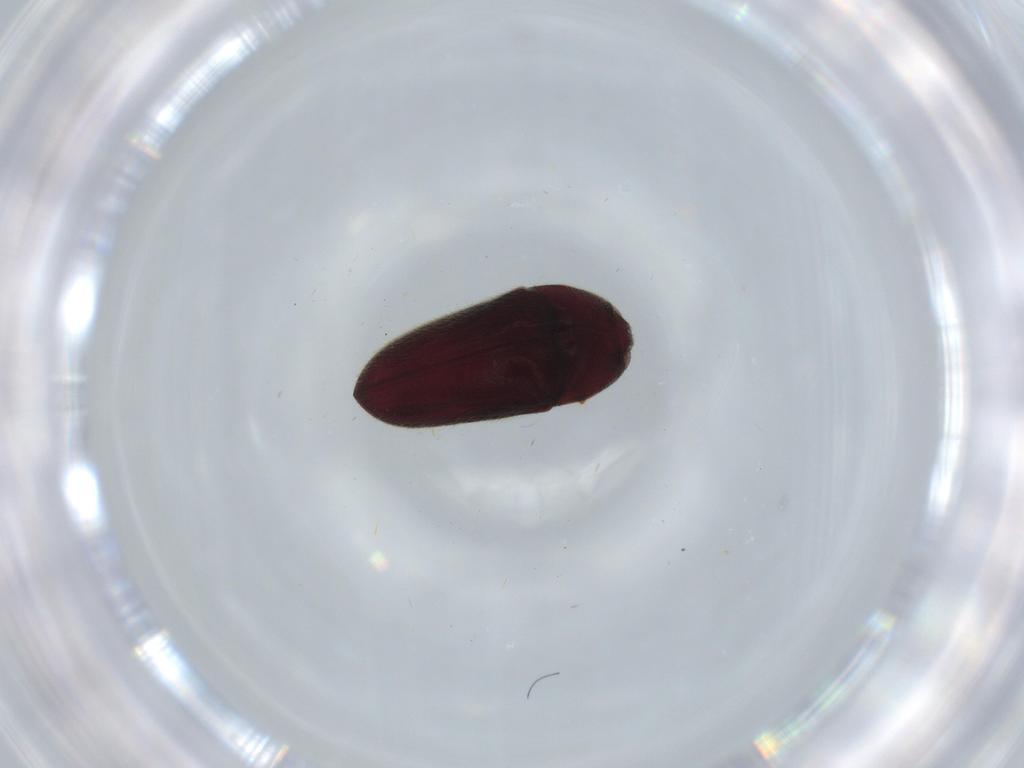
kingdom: Animalia
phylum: Arthropoda
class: Insecta
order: Coleoptera
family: Throscidae
